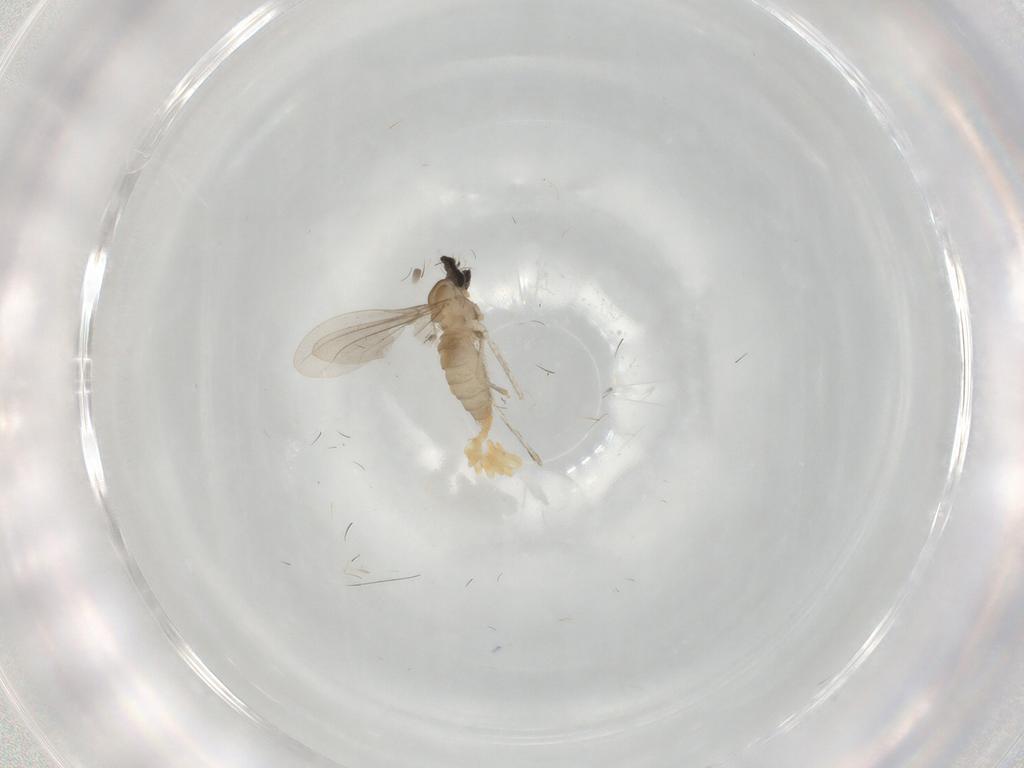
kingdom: Animalia
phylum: Arthropoda
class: Insecta
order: Diptera
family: Cecidomyiidae
